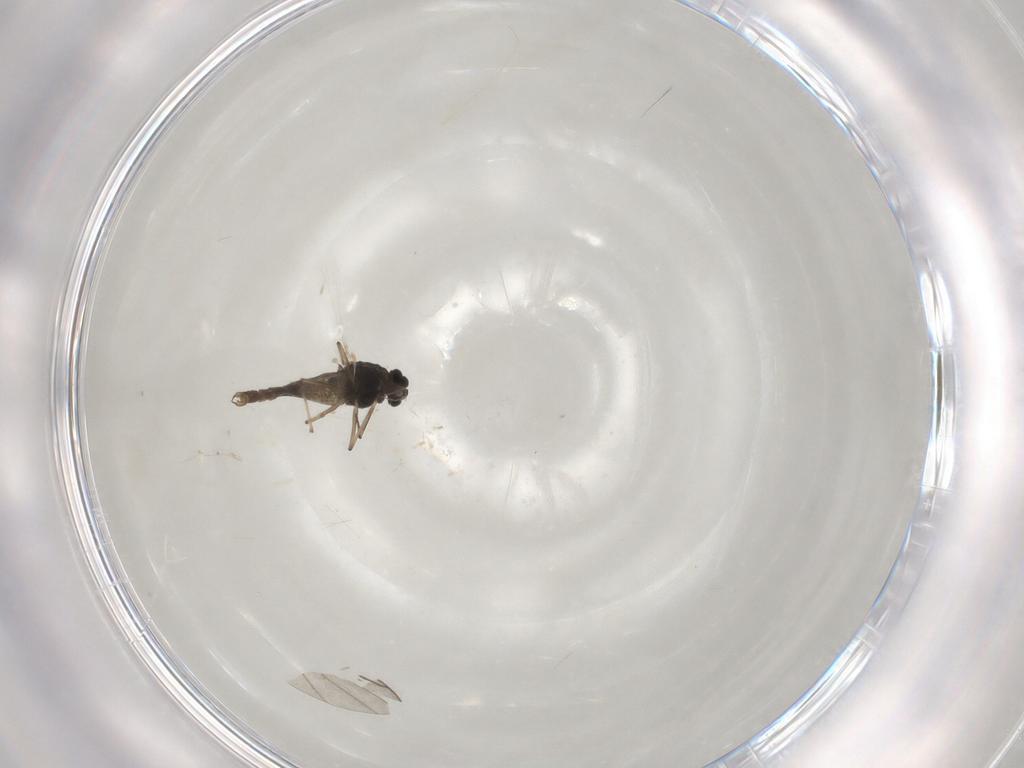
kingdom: Animalia
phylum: Arthropoda
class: Insecta
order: Diptera
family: Chironomidae
